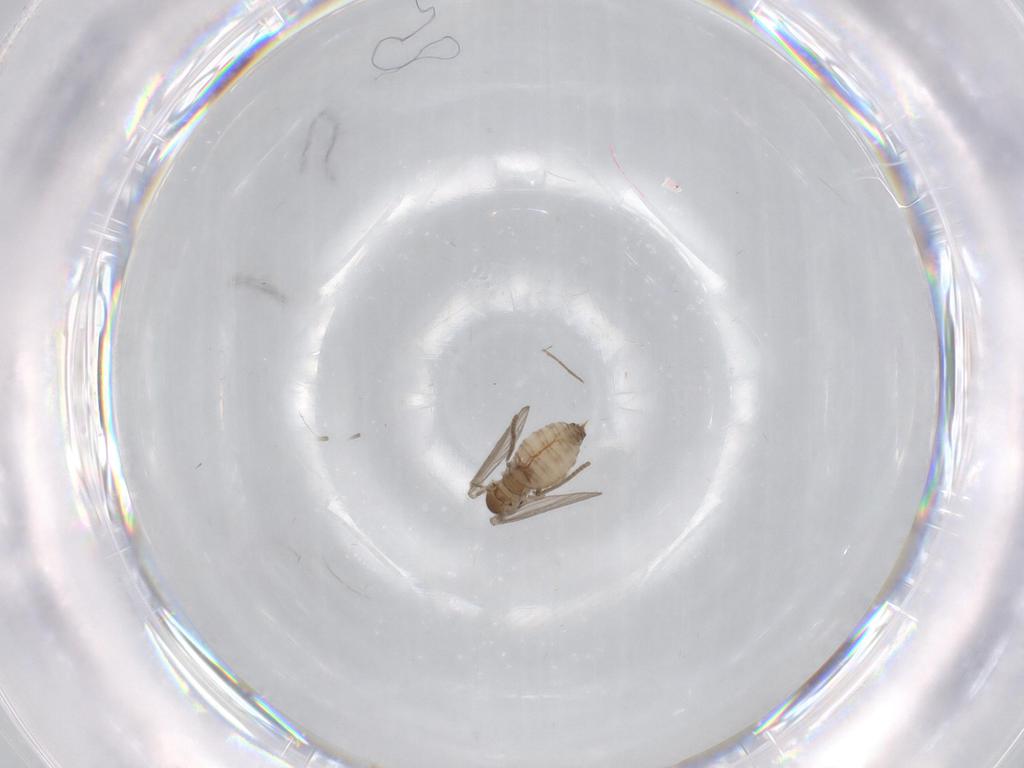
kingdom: Animalia
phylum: Arthropoda
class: Insecta
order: Diptera
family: Psychodidae
